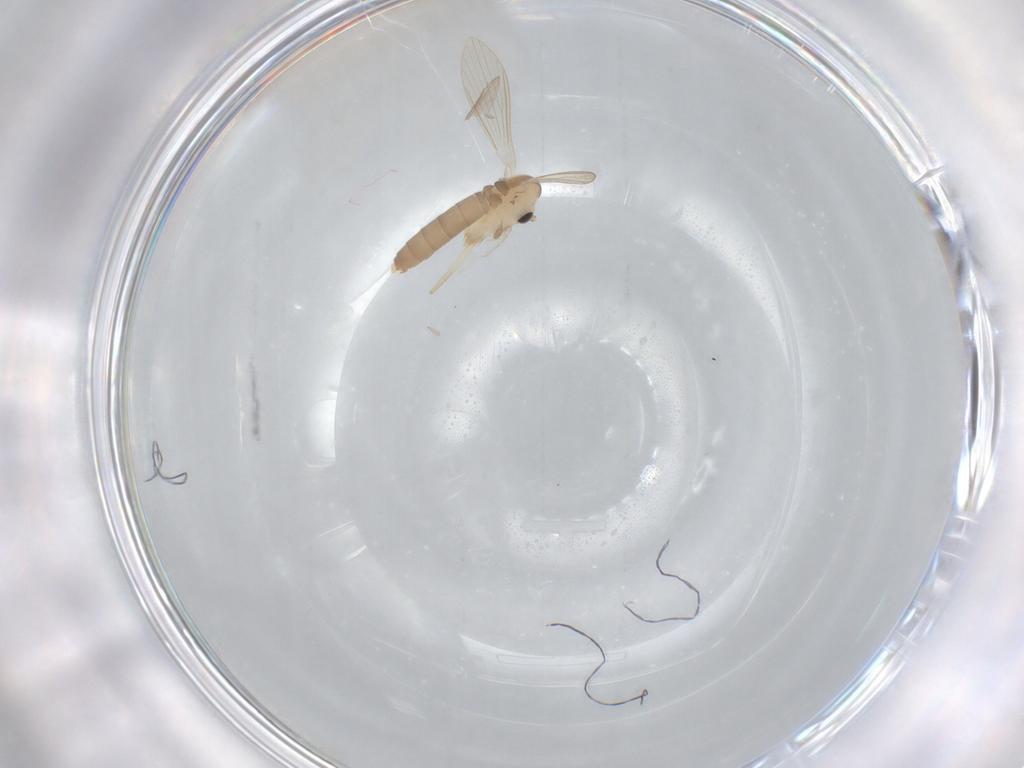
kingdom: Animalia
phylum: Arthropoda
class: Insecta
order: Diptera
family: Psychodidae
